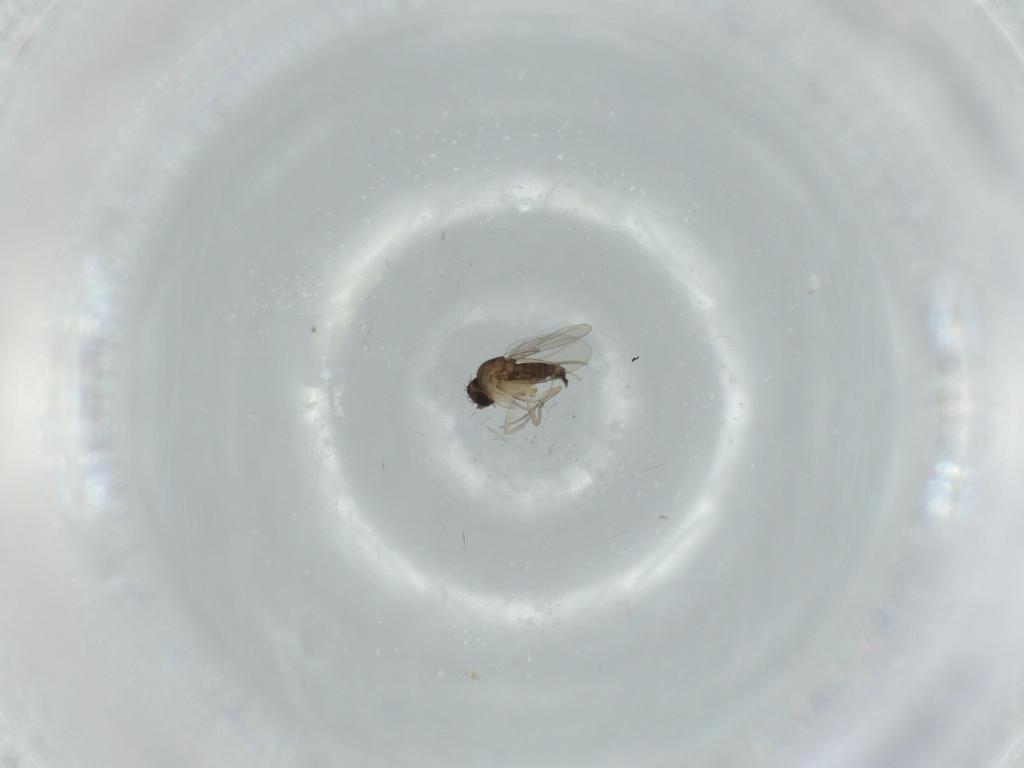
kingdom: Animalia
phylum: Arthropoda
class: Insecta
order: Diptera
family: Phoridae
